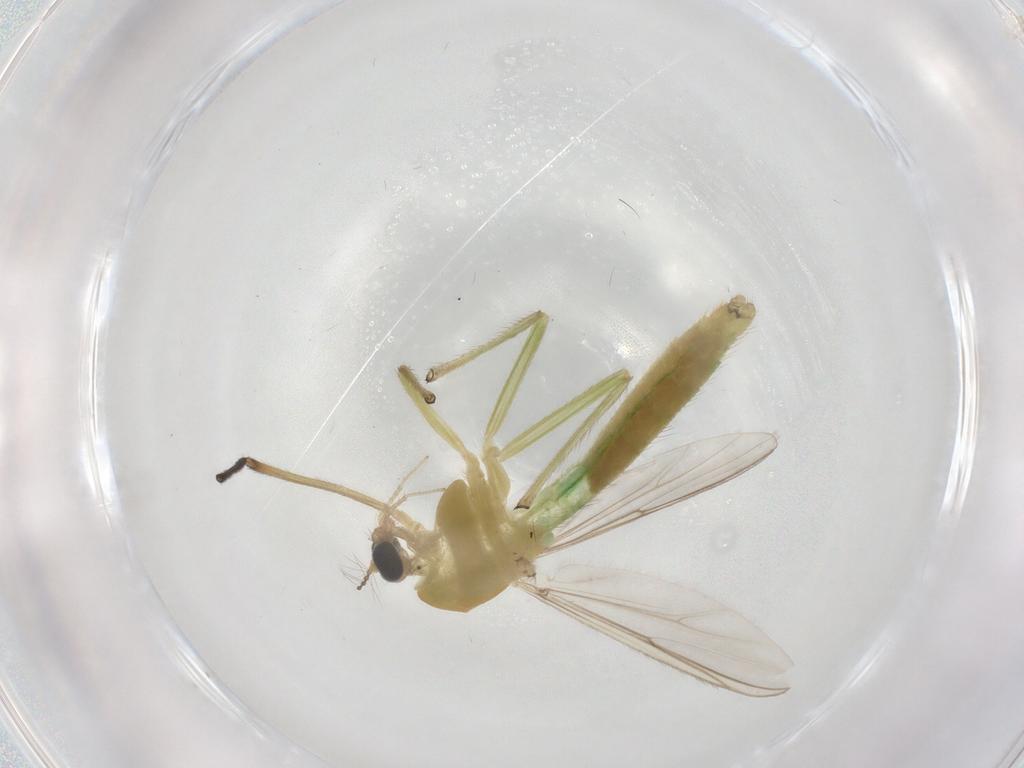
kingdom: Animalia
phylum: Arthropoda
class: Insecta
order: Diptera
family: Chironomidae
